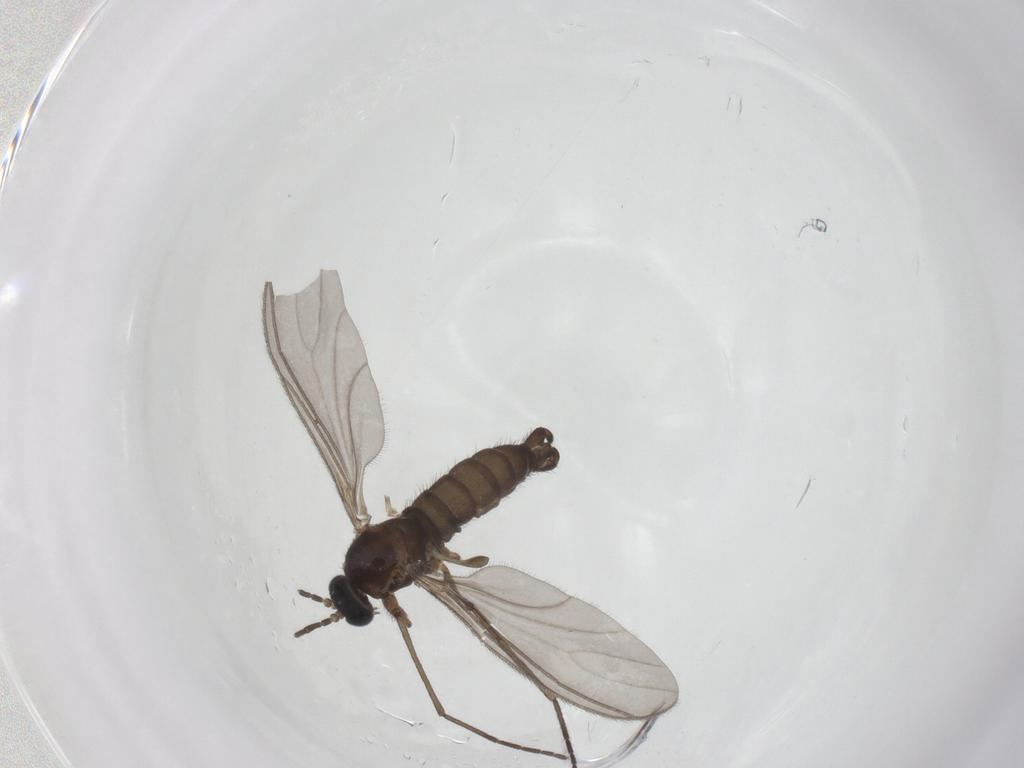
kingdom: Animalia
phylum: Arthropoda
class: Insecta
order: Diptera
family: Sciaridae
